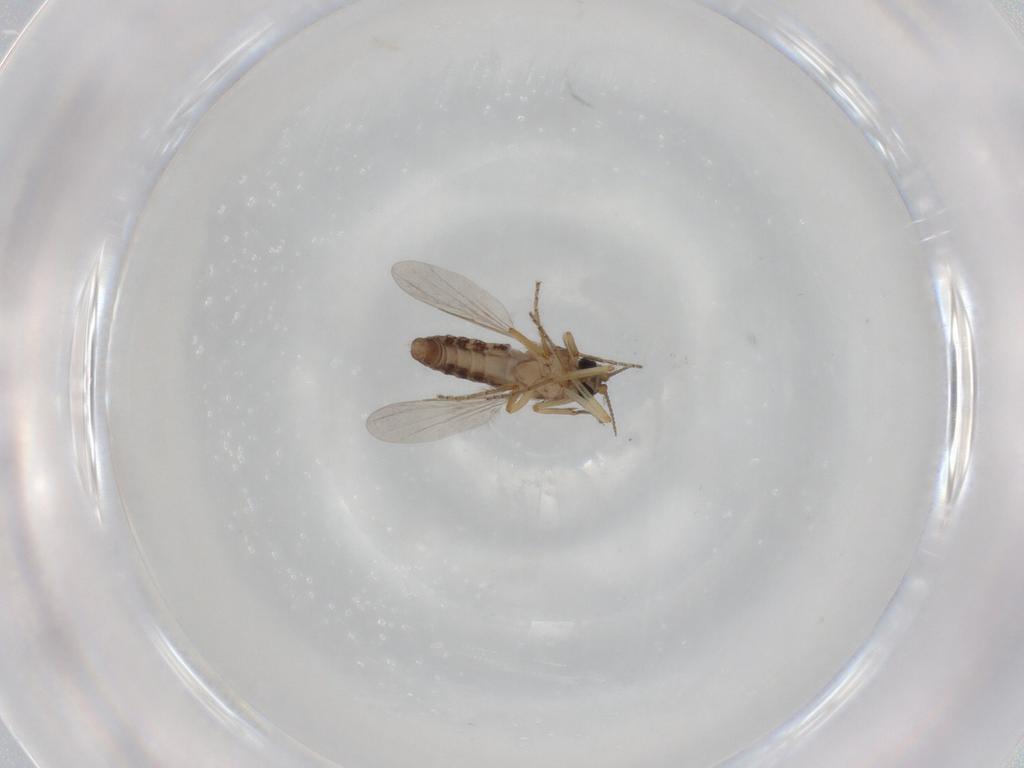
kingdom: Animalia
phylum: Arthropoda
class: Insecta
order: Diptera
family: Ceratopogonidae
